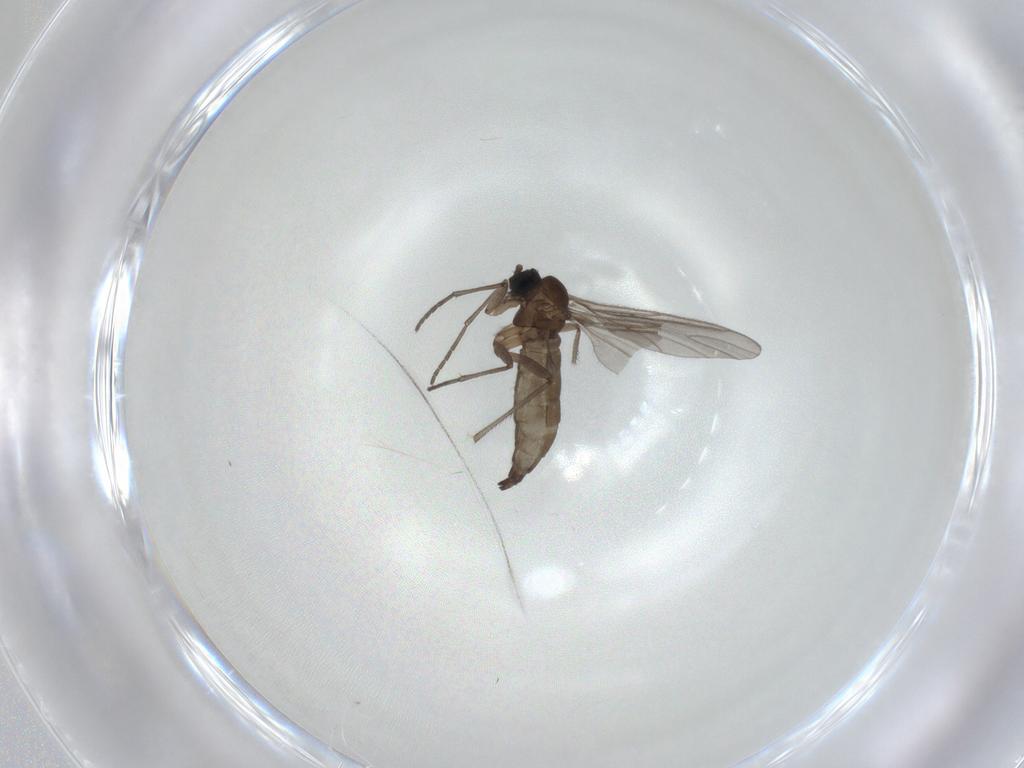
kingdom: Animalia
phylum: Arthropoda
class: Insecta
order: Diptera
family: Sciaridae
